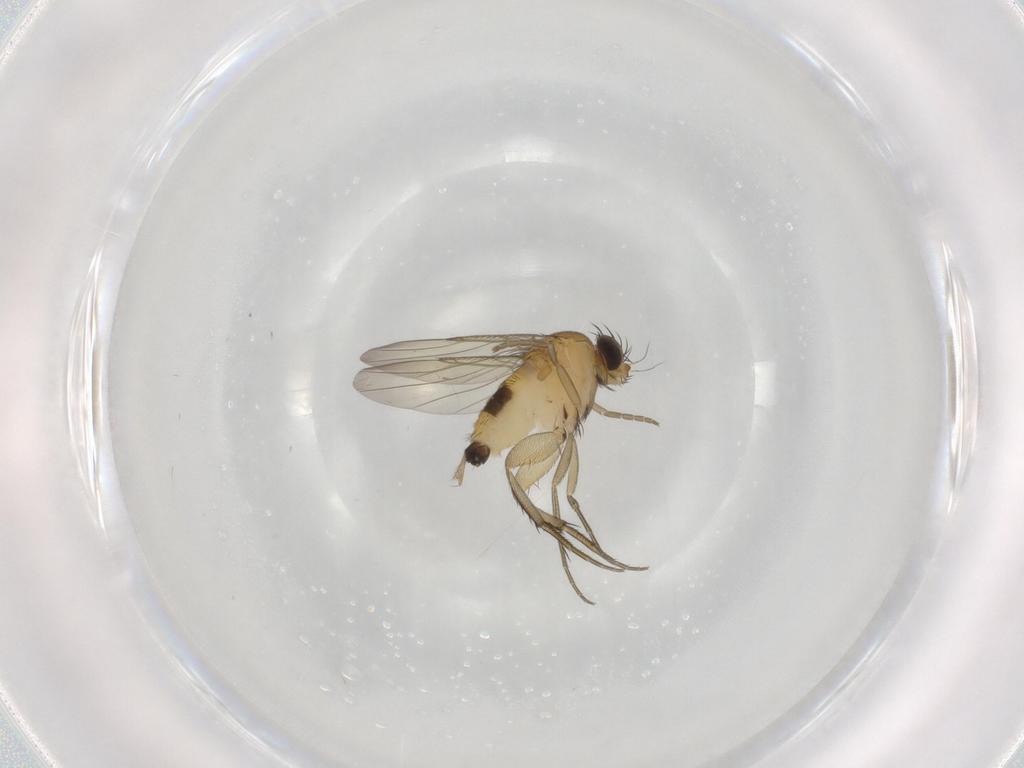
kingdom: Animalia
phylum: Arthropoda
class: Insecta
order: Diptera
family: Phoridae
